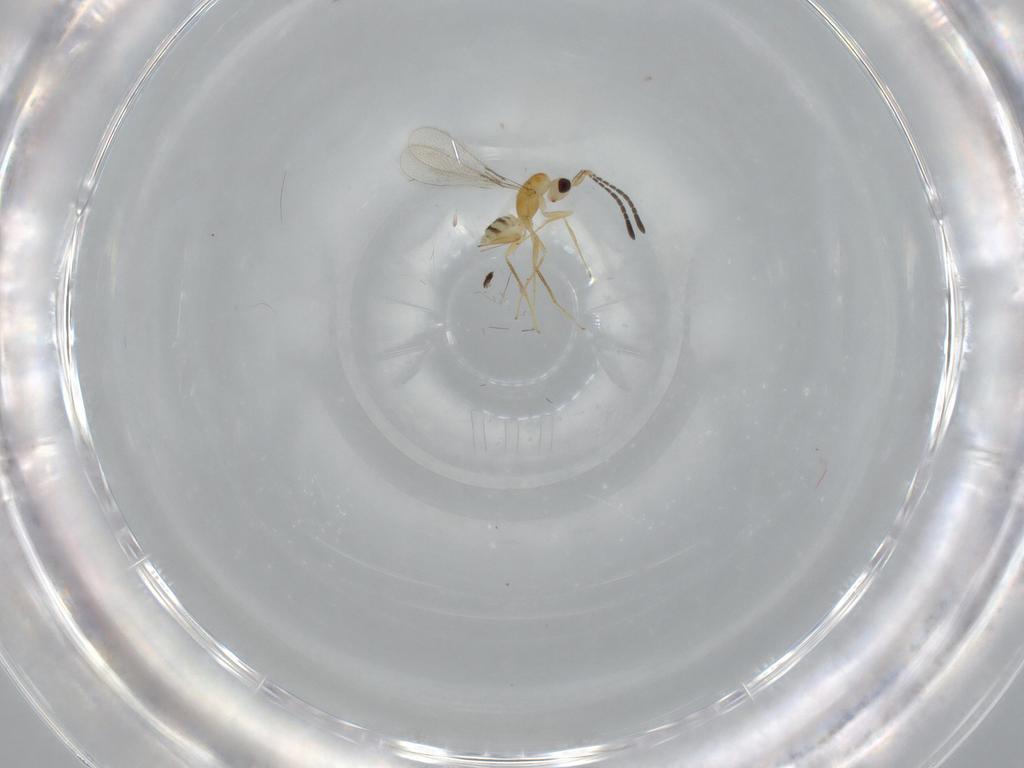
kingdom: Animalia
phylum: Arthropoda
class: Insecta
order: Hymenoptera
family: Mymaridae
